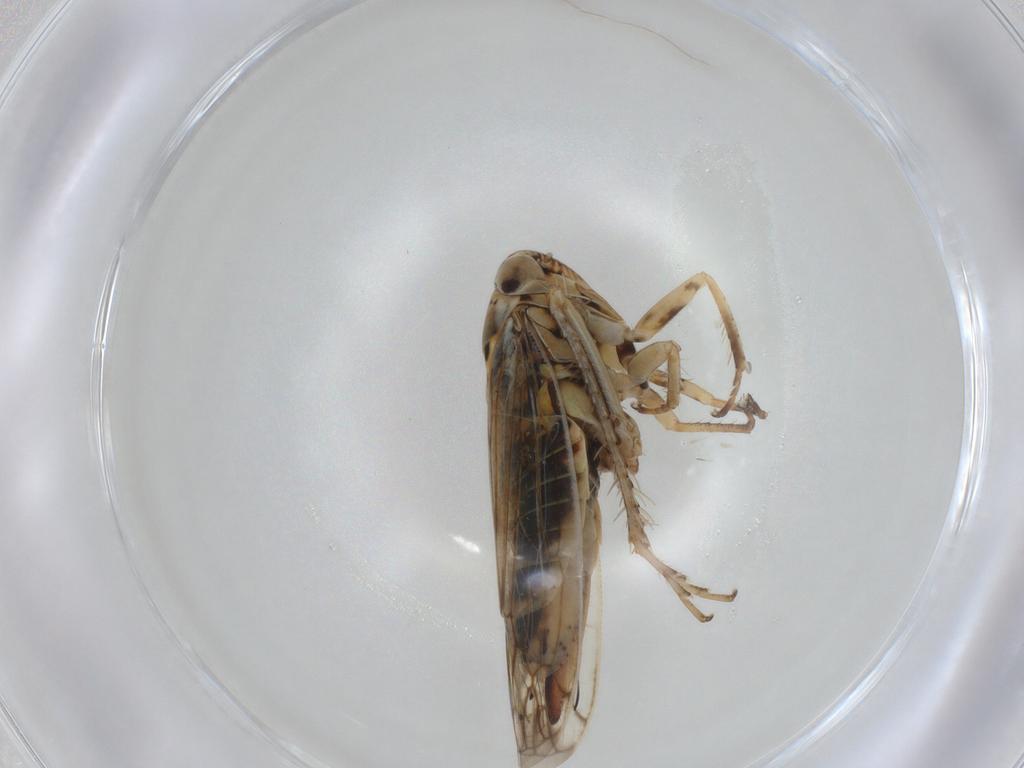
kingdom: Animalia
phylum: Arthropoda
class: Insecta
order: Hemiptera
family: Cicadellidae
